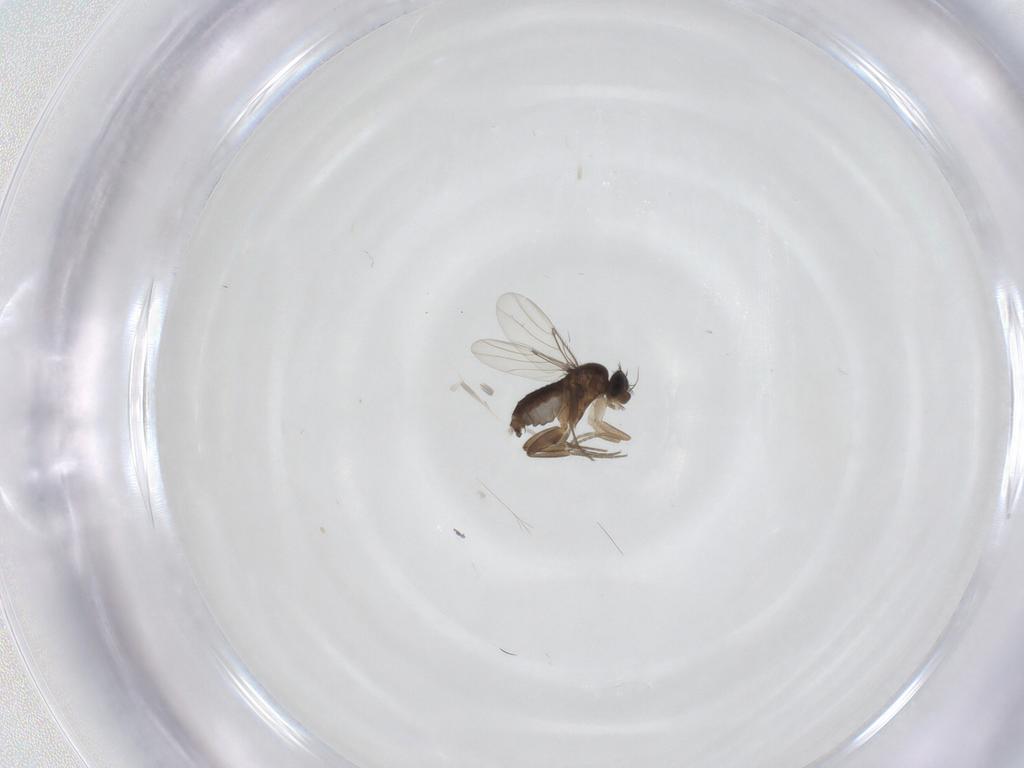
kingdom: Animalia
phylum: Arthropoda
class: Insecta
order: Diptera
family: Phoridae
